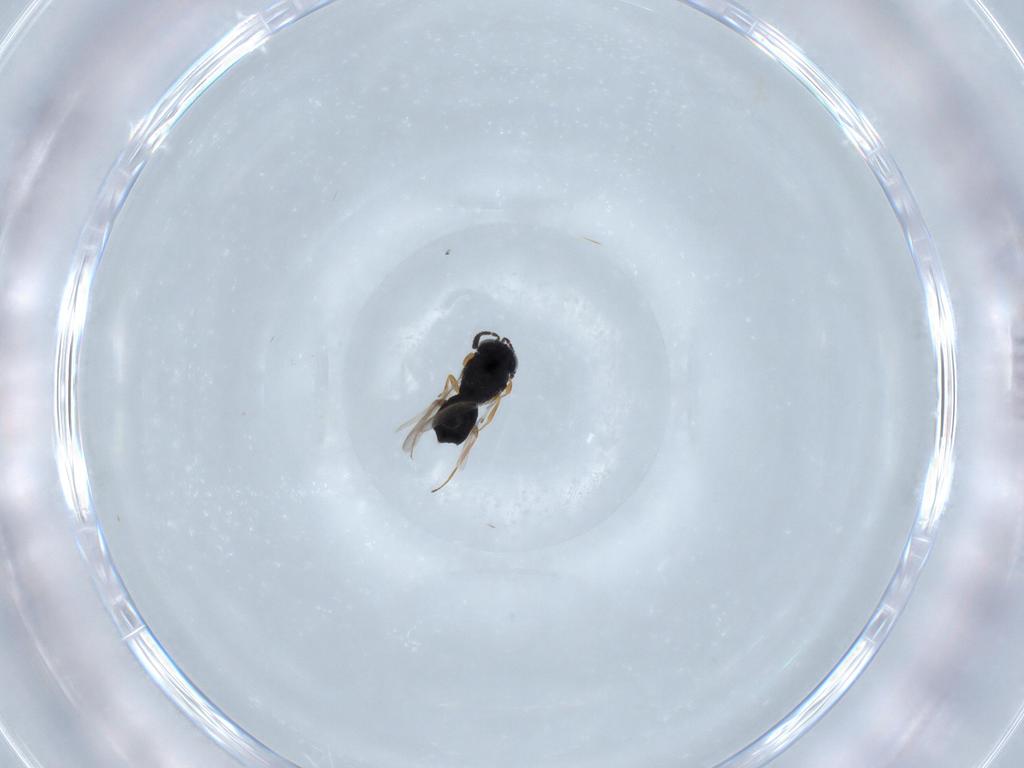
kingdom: Animalia
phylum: Arthropoda
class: Insecta
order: Hymenoptera
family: Scelionidae
